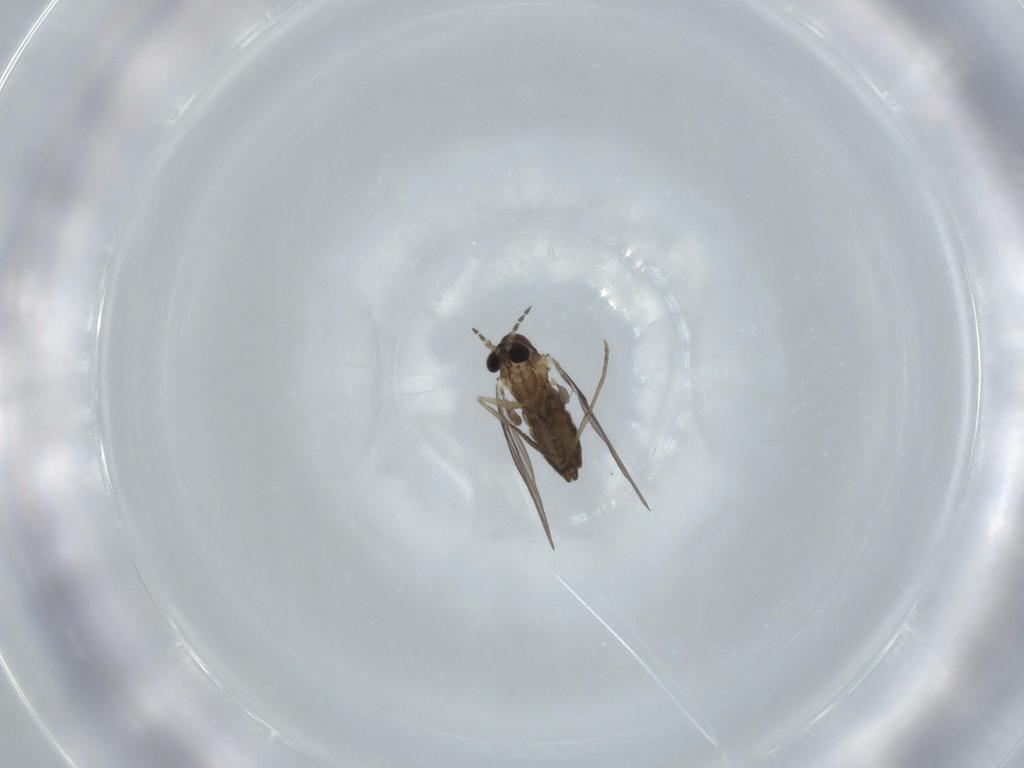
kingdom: Animalia
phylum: Arthropoda
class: Insecta
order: Diptera
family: Psychodidae
